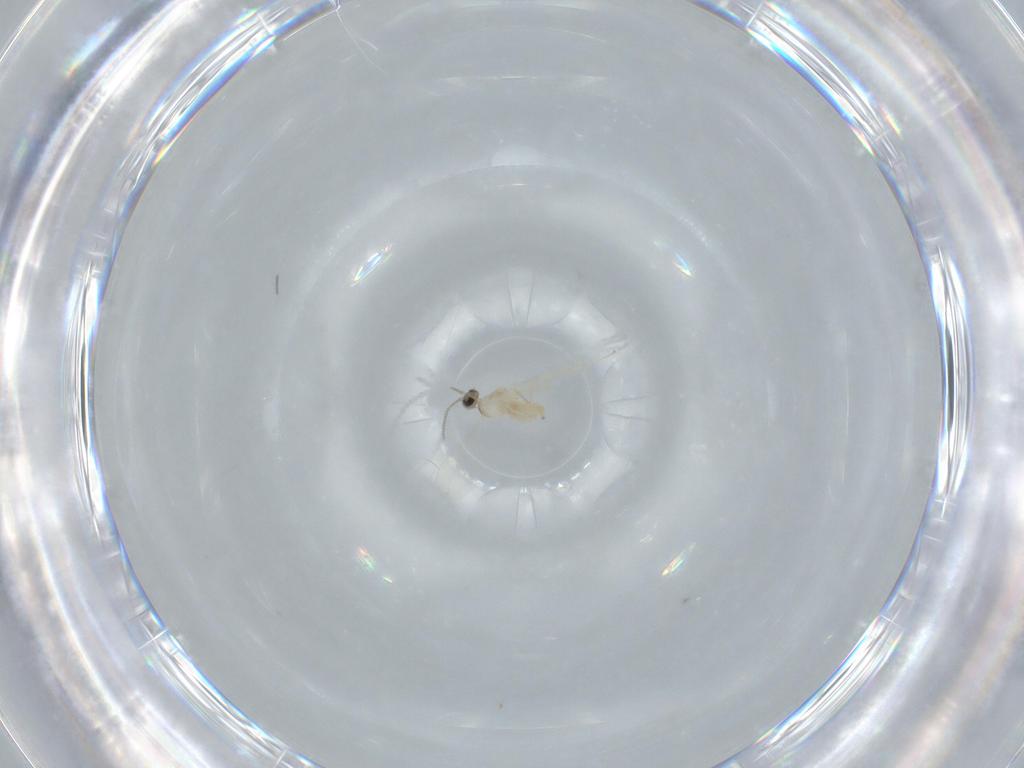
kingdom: Animalia
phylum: Arthropoda
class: Insecta
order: Diptera
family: Cecidomyiidae
